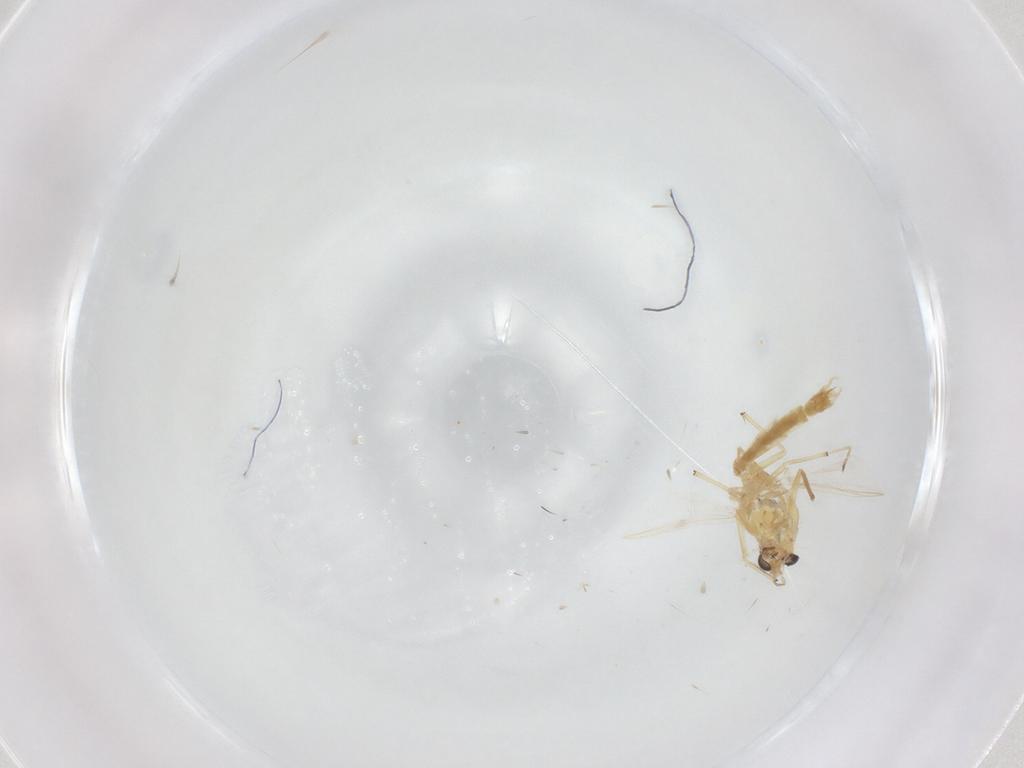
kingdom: Animalia
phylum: Arthropoda
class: Insecta
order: Diptera
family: Chironomidae
